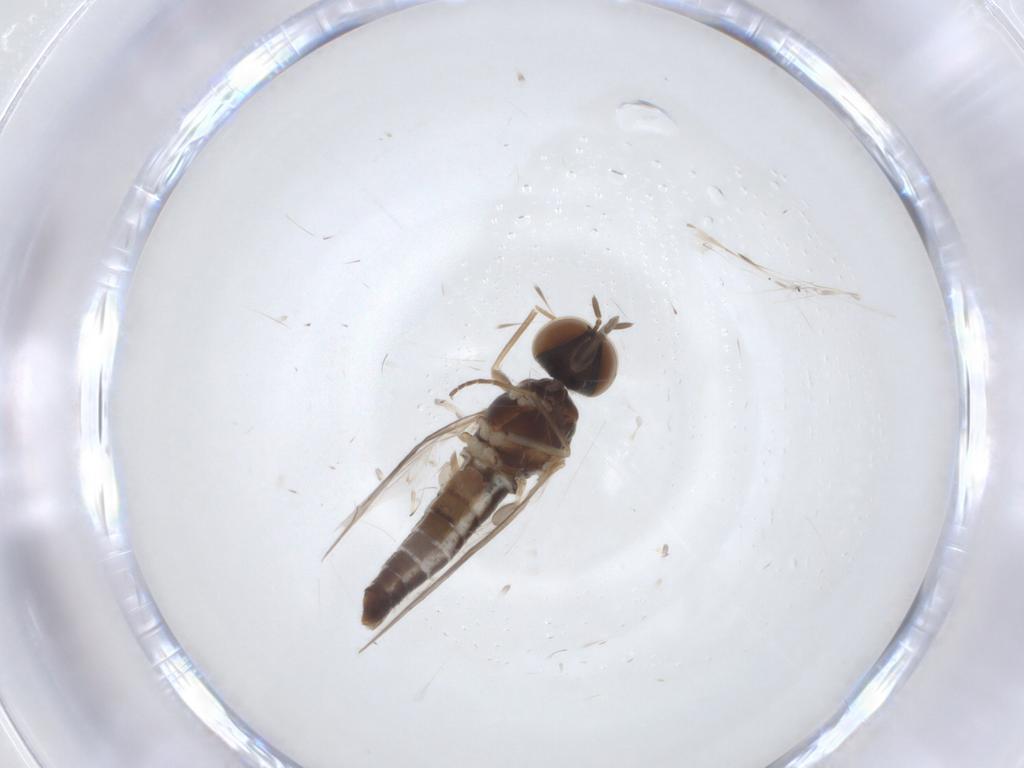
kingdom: Animalia
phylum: Arthropoda
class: Insecta
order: Diptera
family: Scenopinidae
